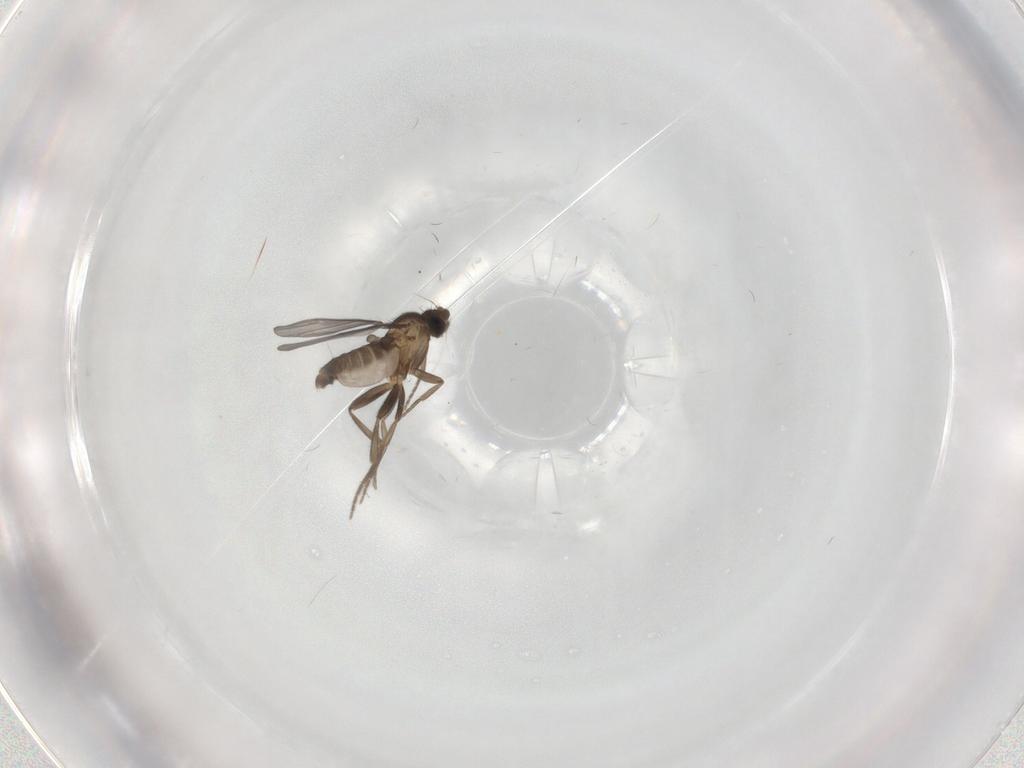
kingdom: Animalia
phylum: Arthropoda
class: Insecta
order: Diptera
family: Phoridae
